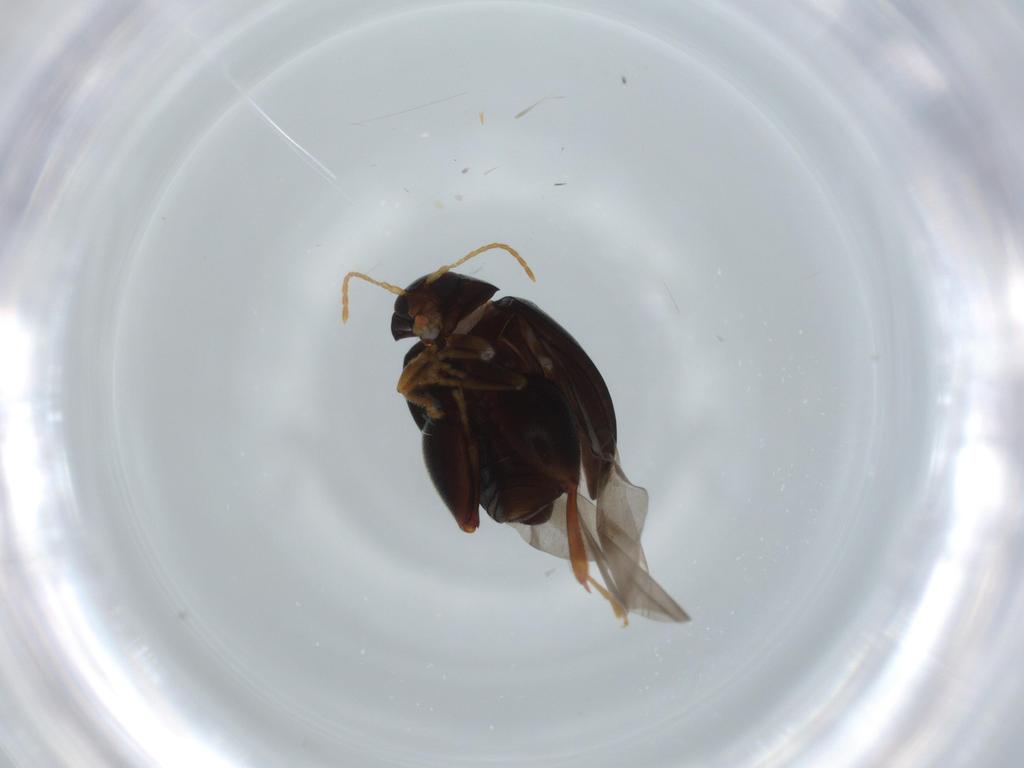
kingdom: Animalia
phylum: Arthropoda
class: Insecta
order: Coleoptera
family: Chrysomelidae
